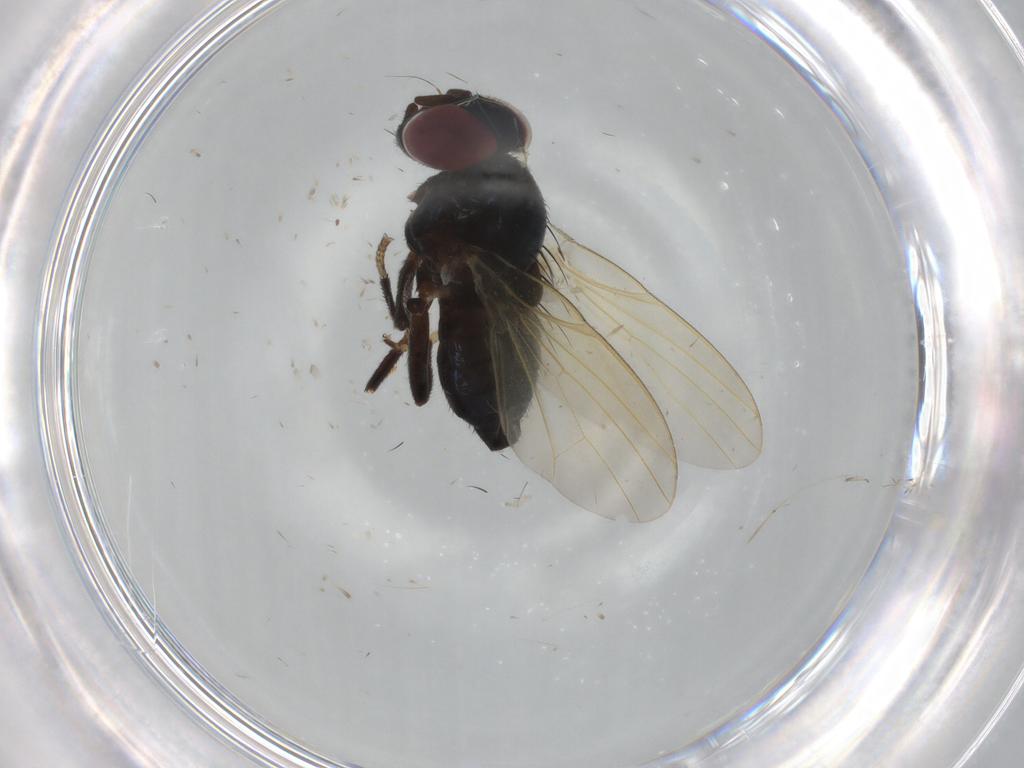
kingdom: Animalia
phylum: Arthropoda
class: Insecta
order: Diptera
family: Lonchaeidae
